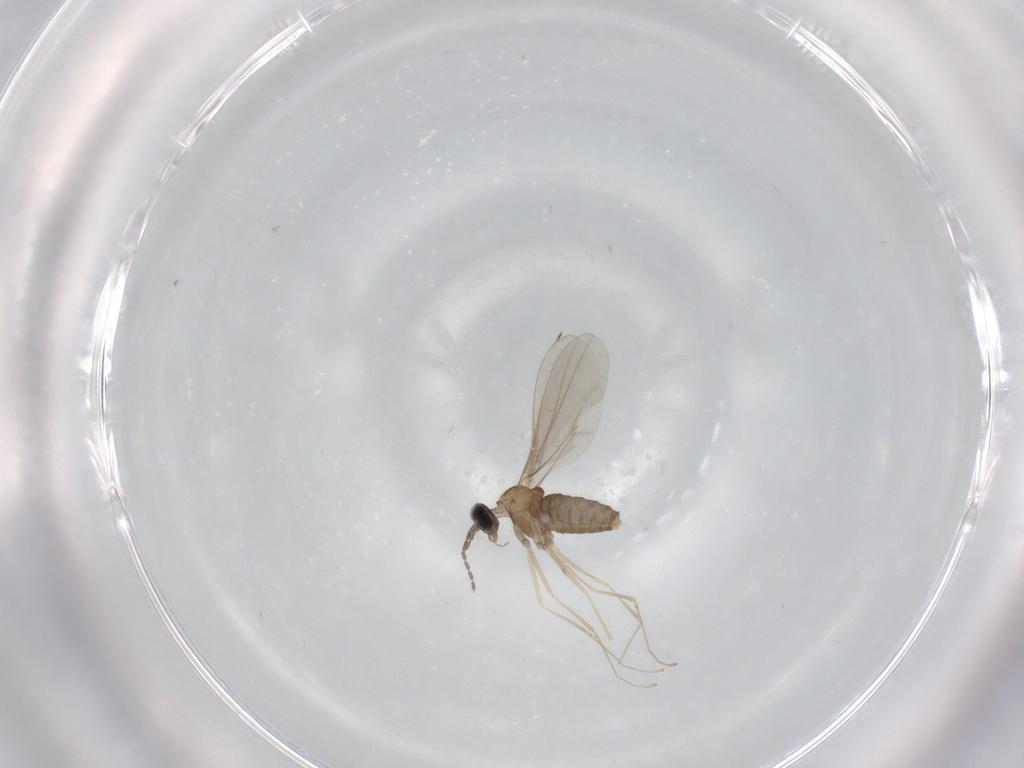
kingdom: Animalia
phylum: Arthropoda
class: Insecta
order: Diptera
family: Cecidomyiidae
